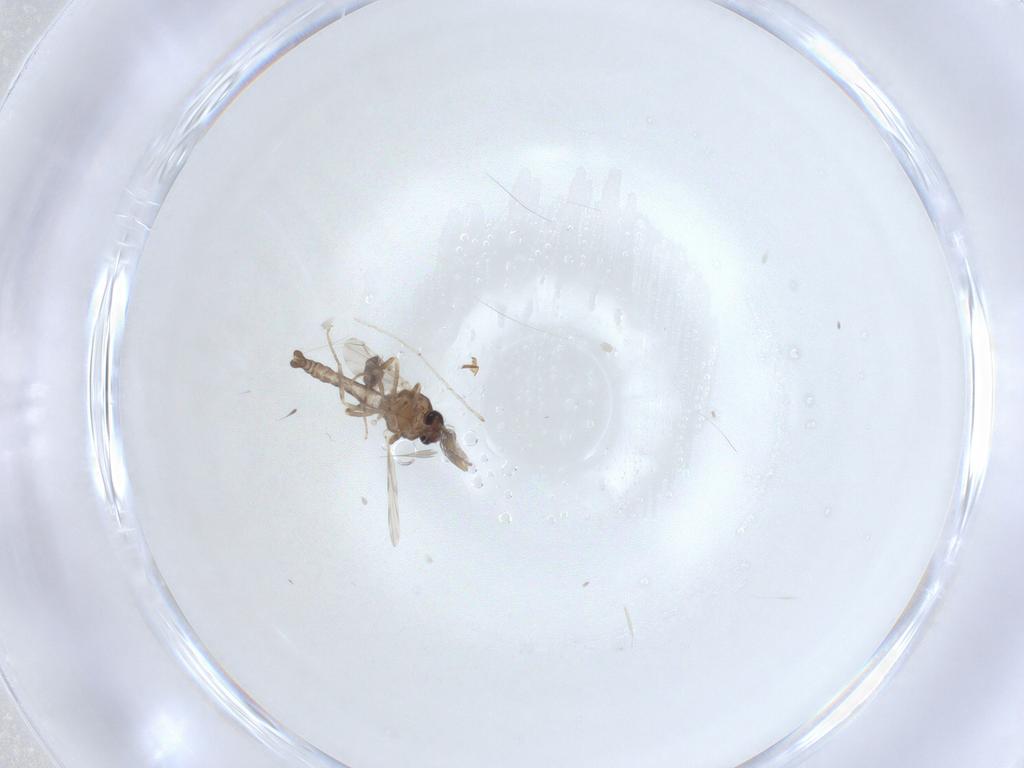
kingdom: Animalia
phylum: Arthropoda
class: Insecta
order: Diptera
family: Ceratopogonidae
